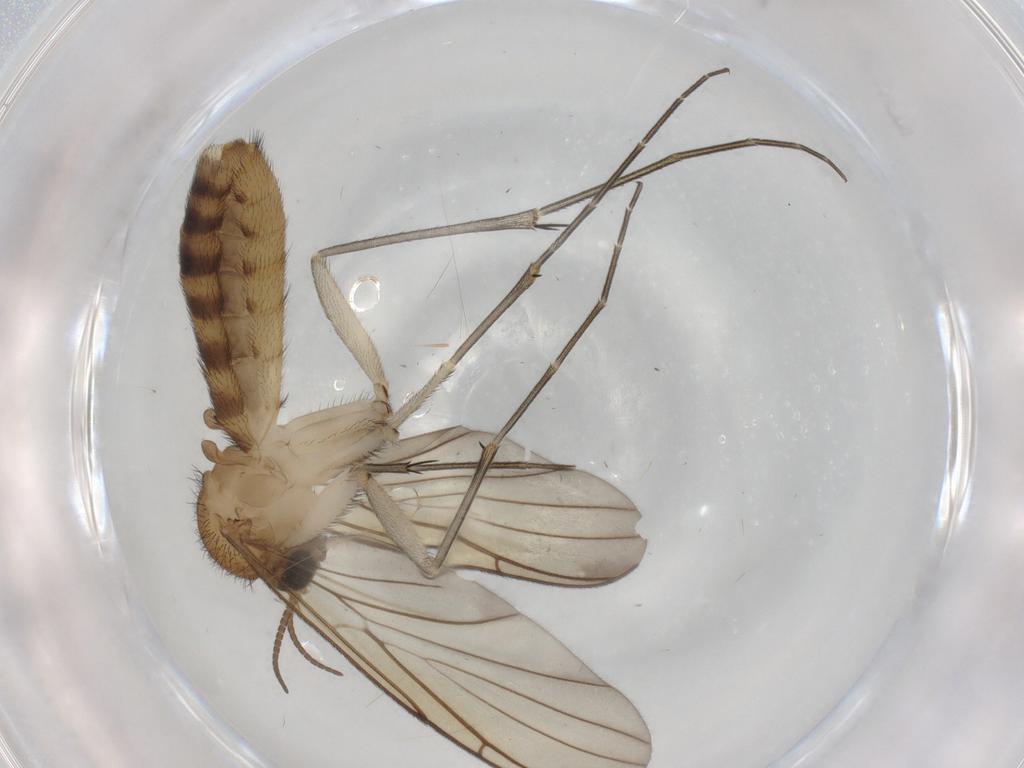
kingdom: Animalia
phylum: Arthropoda
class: Insecta
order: Diptera
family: Keroplatidae
